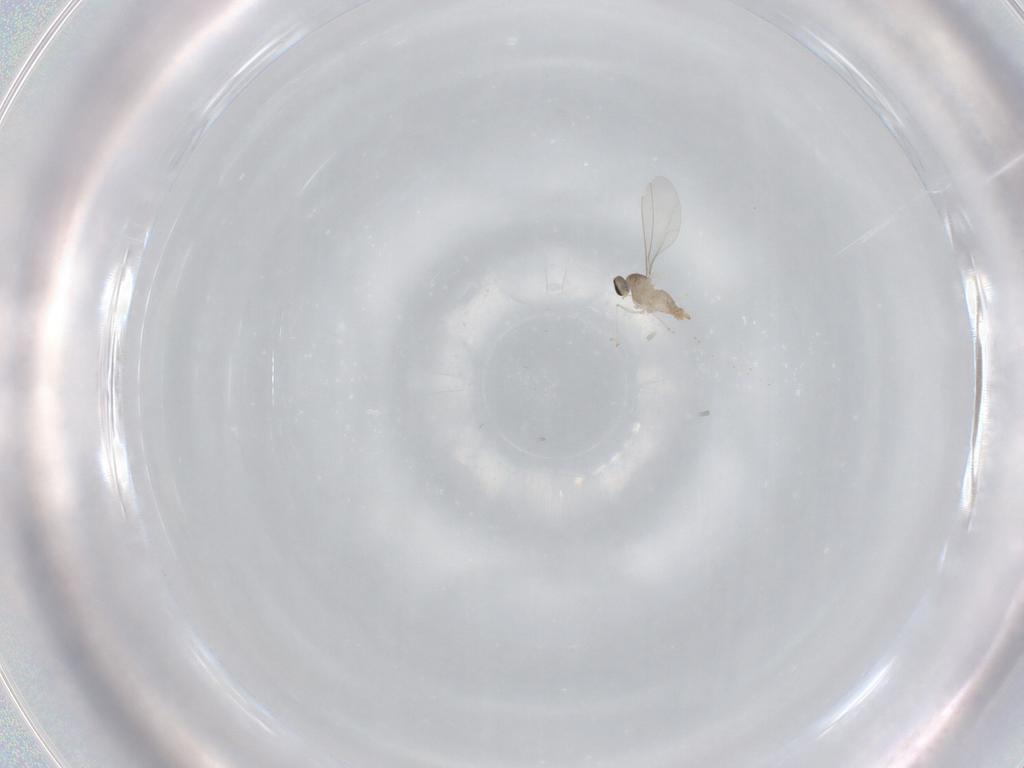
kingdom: Animalia
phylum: Arthropoda
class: Insecta
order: Diptera
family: Cecidomyiidae
